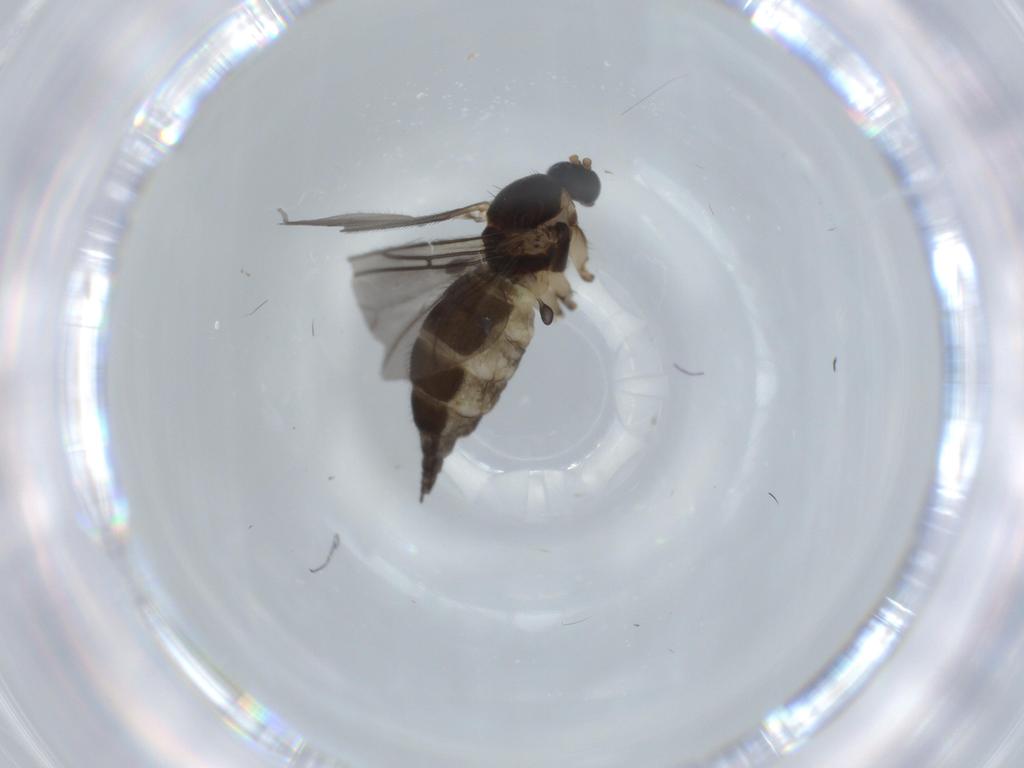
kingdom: Animalia
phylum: Arthropoda
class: Insecta
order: Diptera
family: Sciaridae
